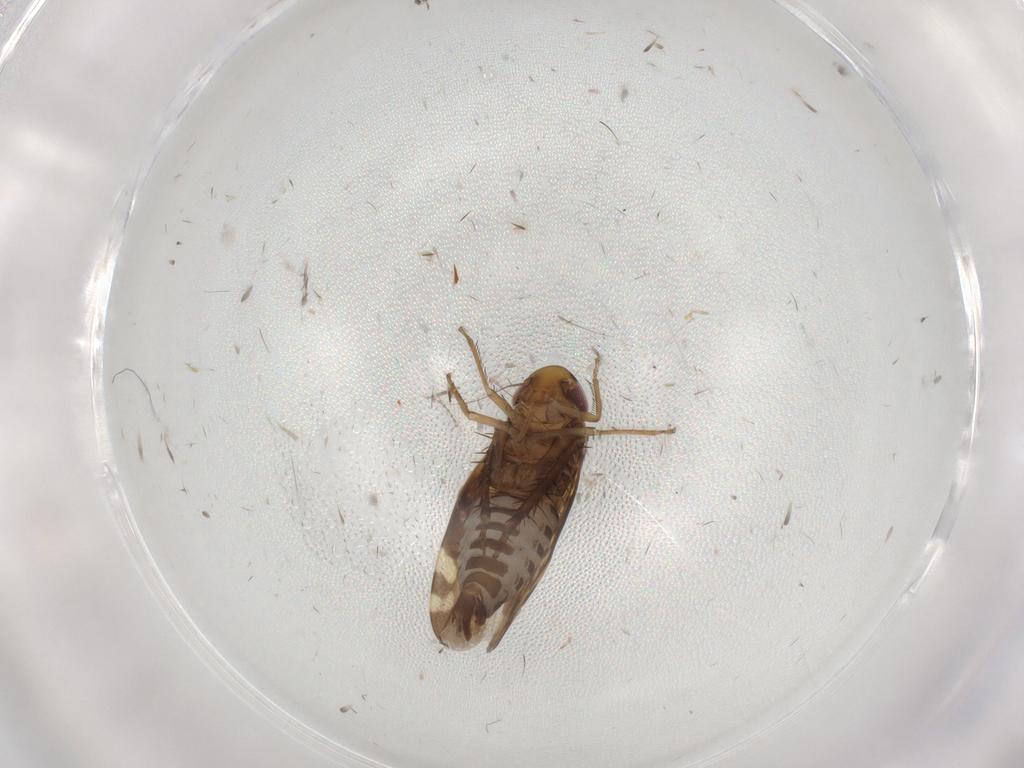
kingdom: Animalia
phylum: Arthropoda
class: Insecta
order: Hemiptera
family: Cicadellidae
